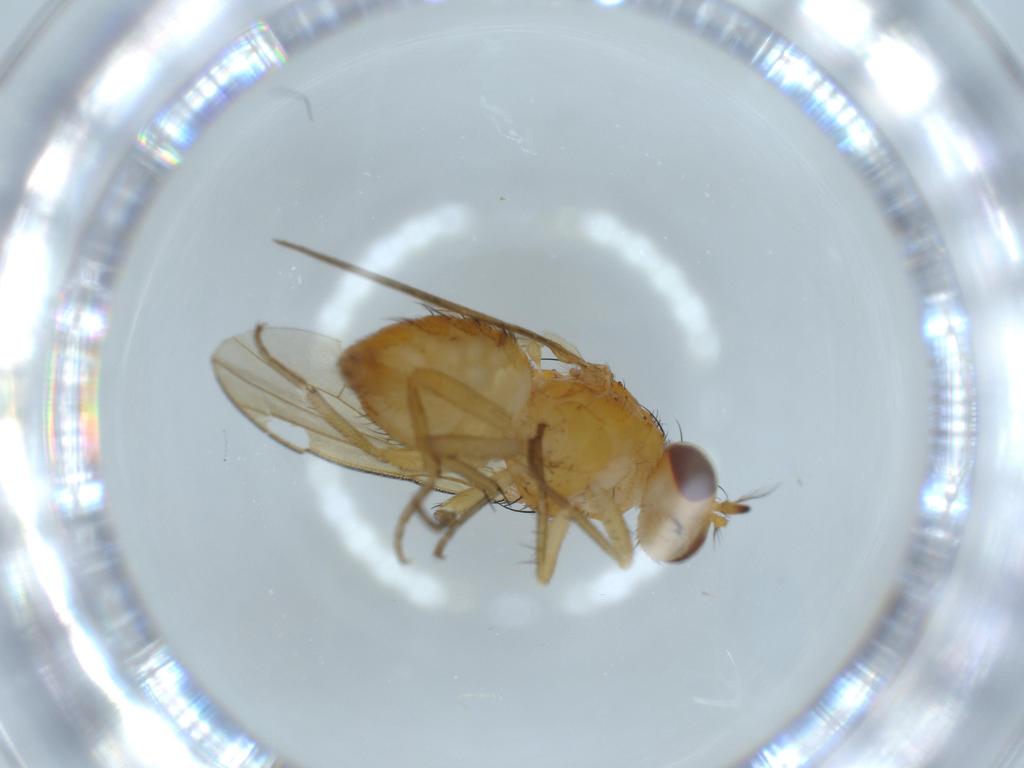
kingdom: Animalia
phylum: Arthropoda
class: Insecta
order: Diptera
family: Lauxaniidae
